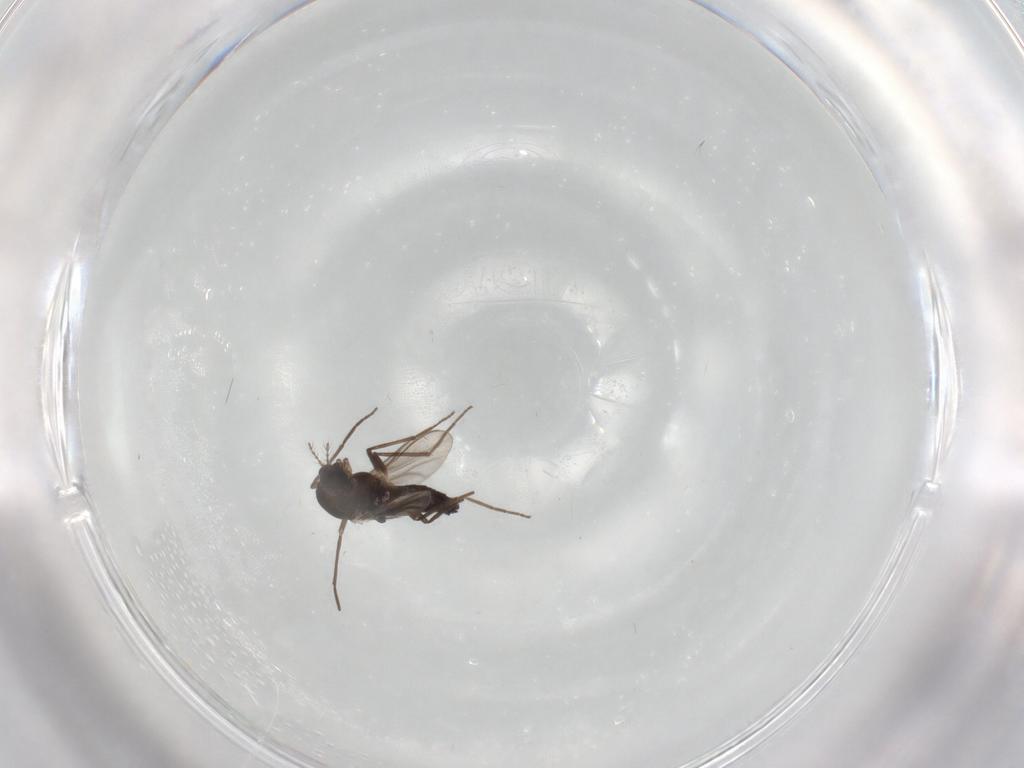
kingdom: Animalia
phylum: Arthropoda
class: Insecta
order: Diptera
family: Chironomidae
